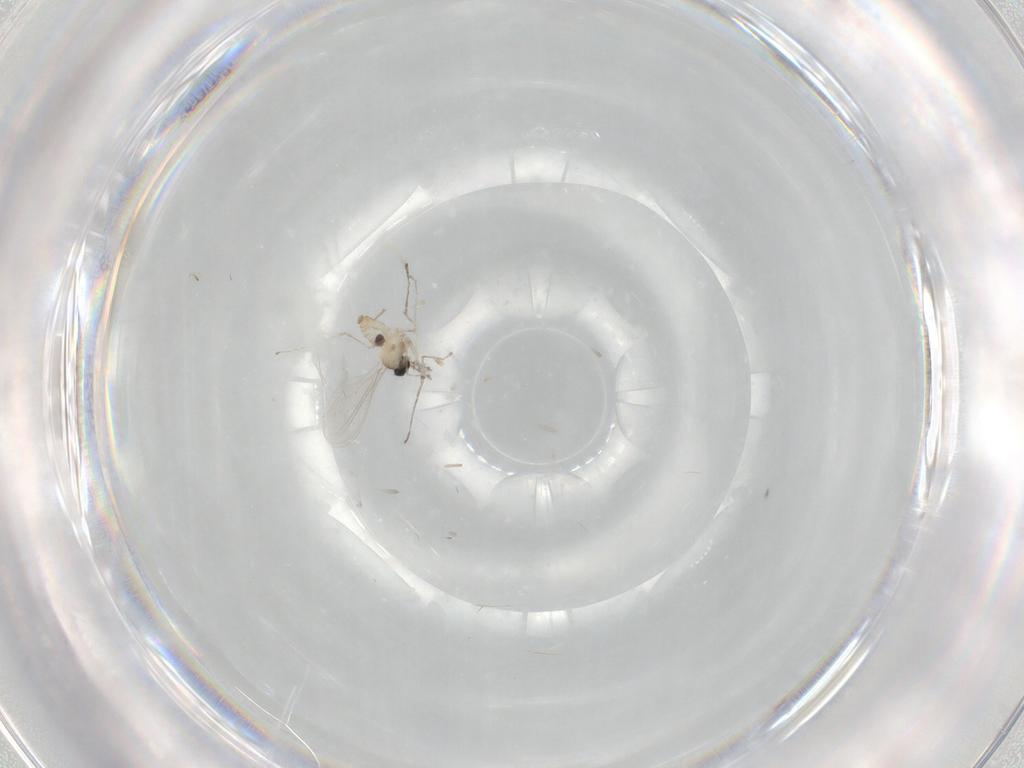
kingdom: Animalia
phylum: Arthropoda
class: Insecta
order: Diptera
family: Cecidomyiidae
